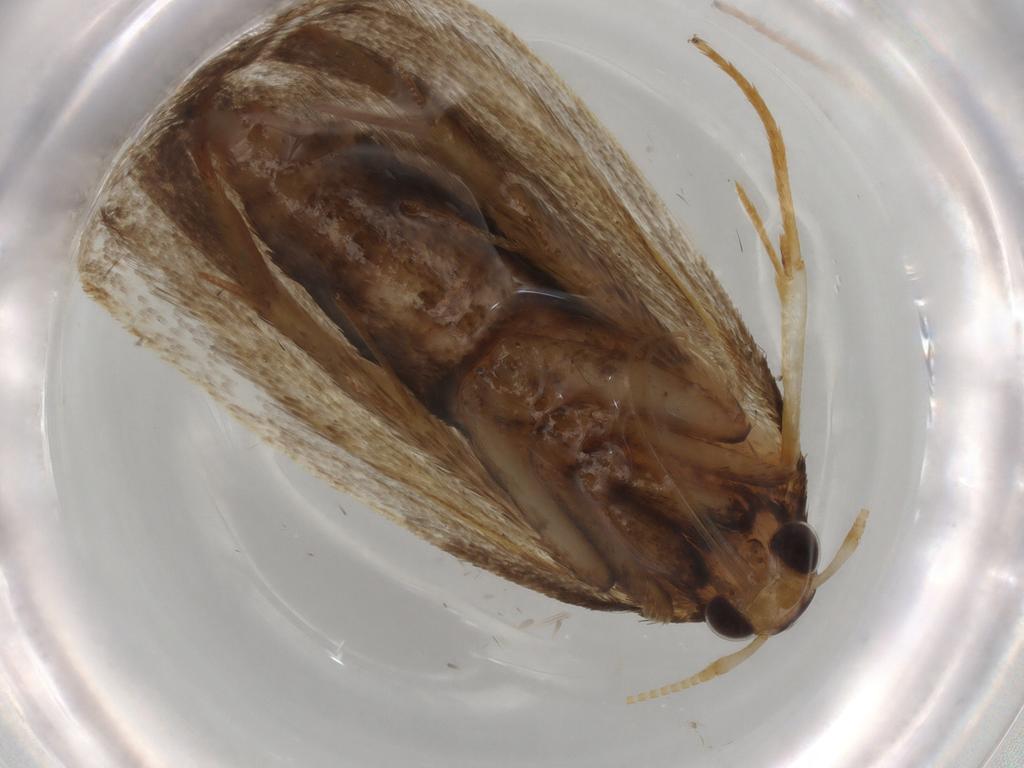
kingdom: Animalia
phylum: Arthropoda
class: Insecta
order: Lepidoptera
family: Lecithoceridae
